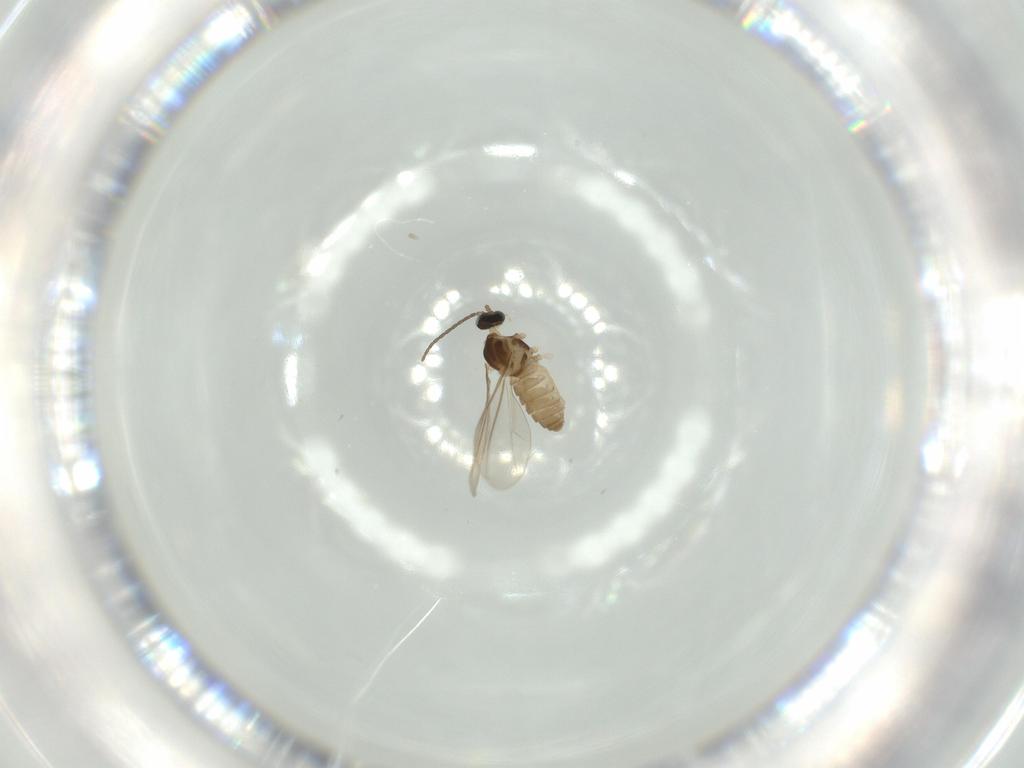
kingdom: Animalia
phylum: Arthropoda
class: Insecta
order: Diptera
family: Cecidomyiidae
